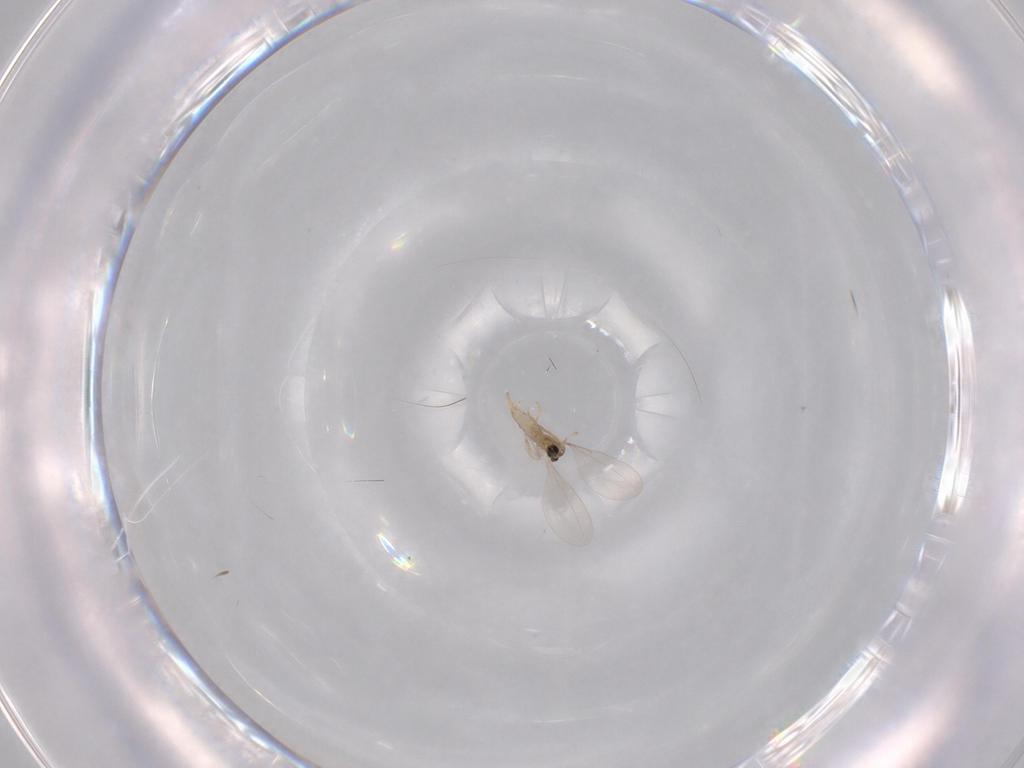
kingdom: Animalia
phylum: Arthropoda
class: Insecta
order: Diptera
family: Cecidomyiidae
